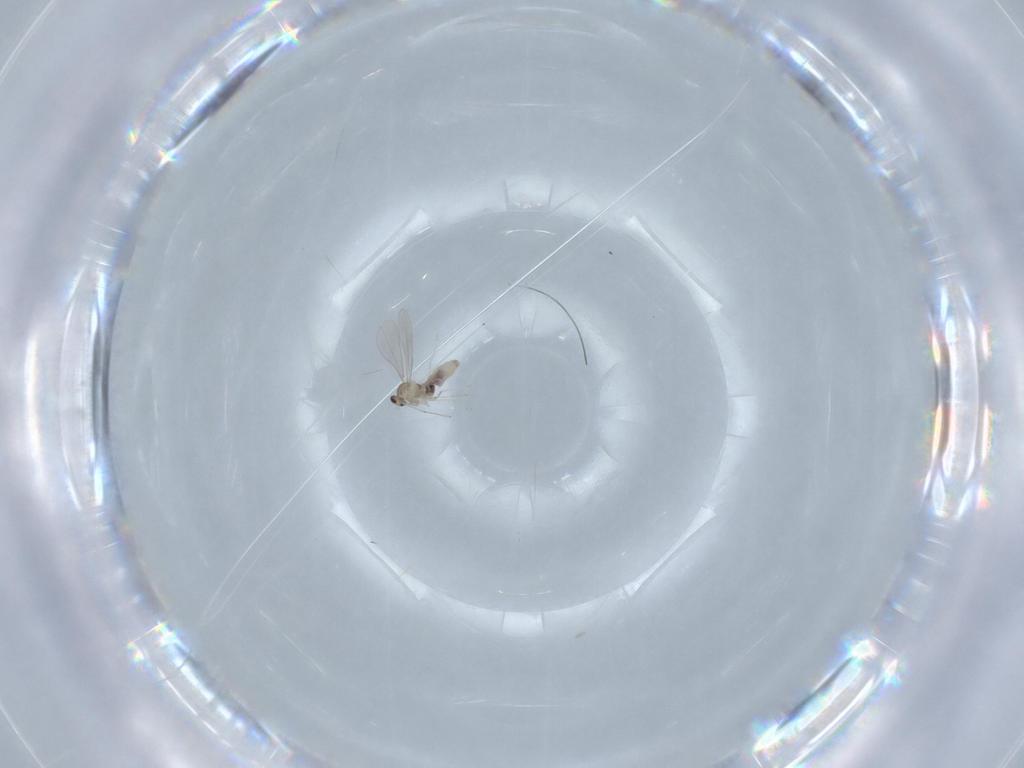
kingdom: Animalia
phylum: Arthropoda
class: Insecta
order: Diptera
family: Cecidomyiidae
